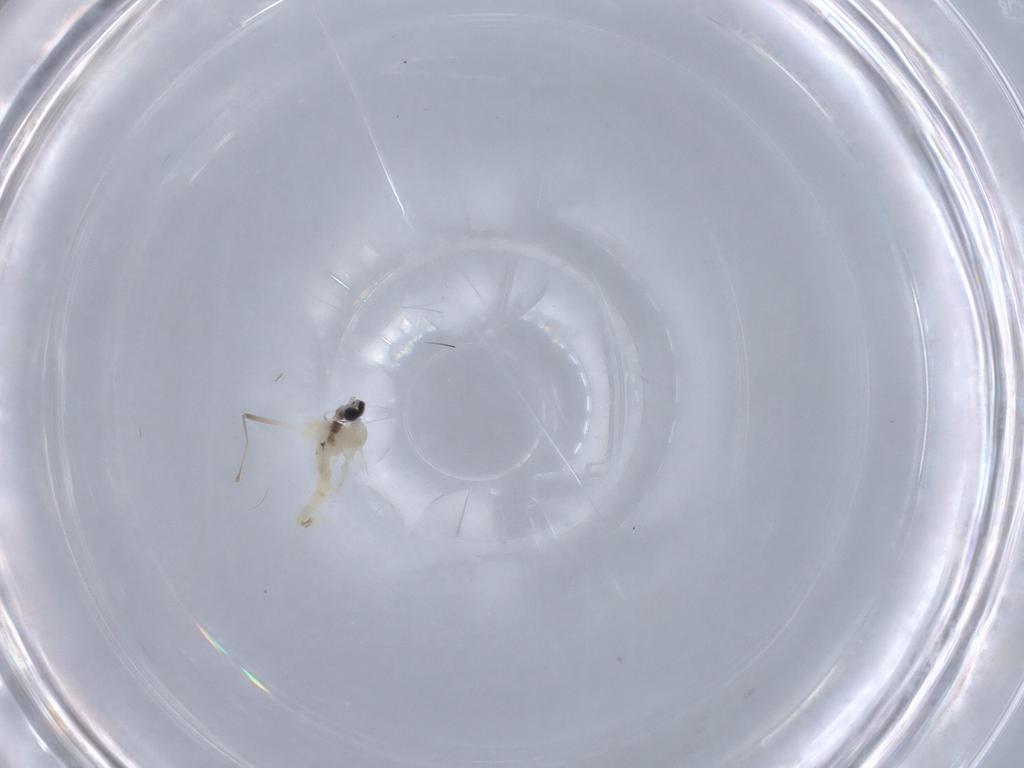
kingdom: Animalia
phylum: Arthropoda
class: Insecta
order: Diptera
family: Cecidomyiidae
